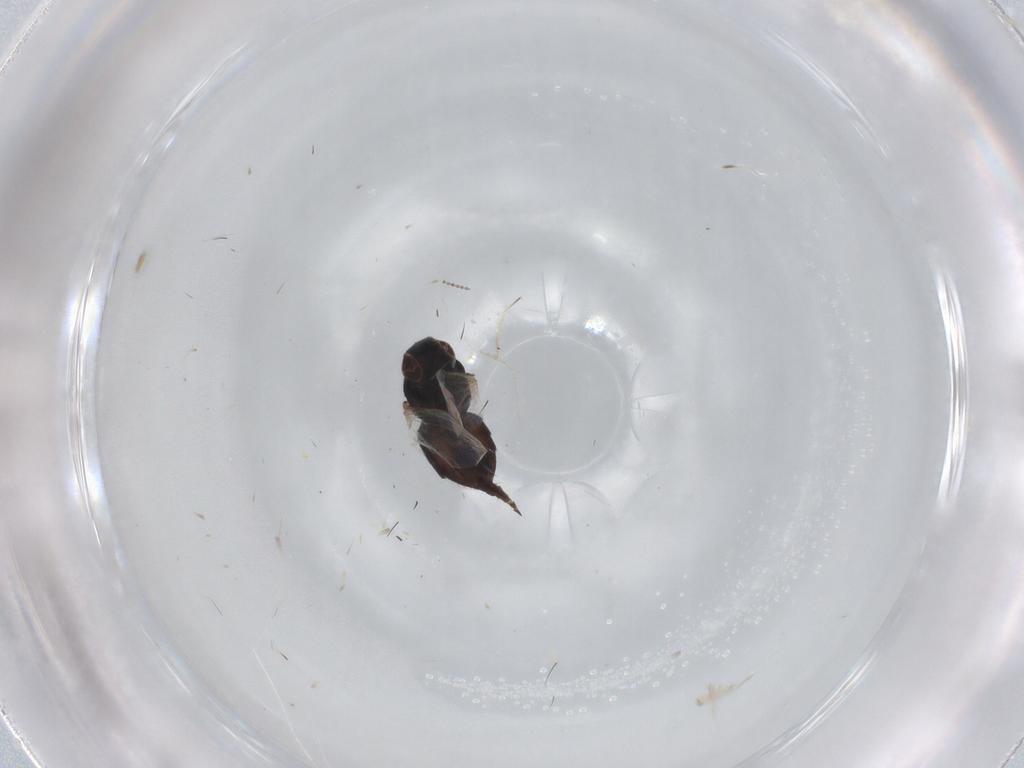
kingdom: Animalia
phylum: Arthropoda
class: Insecta
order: Diptera
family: Milichiidae
